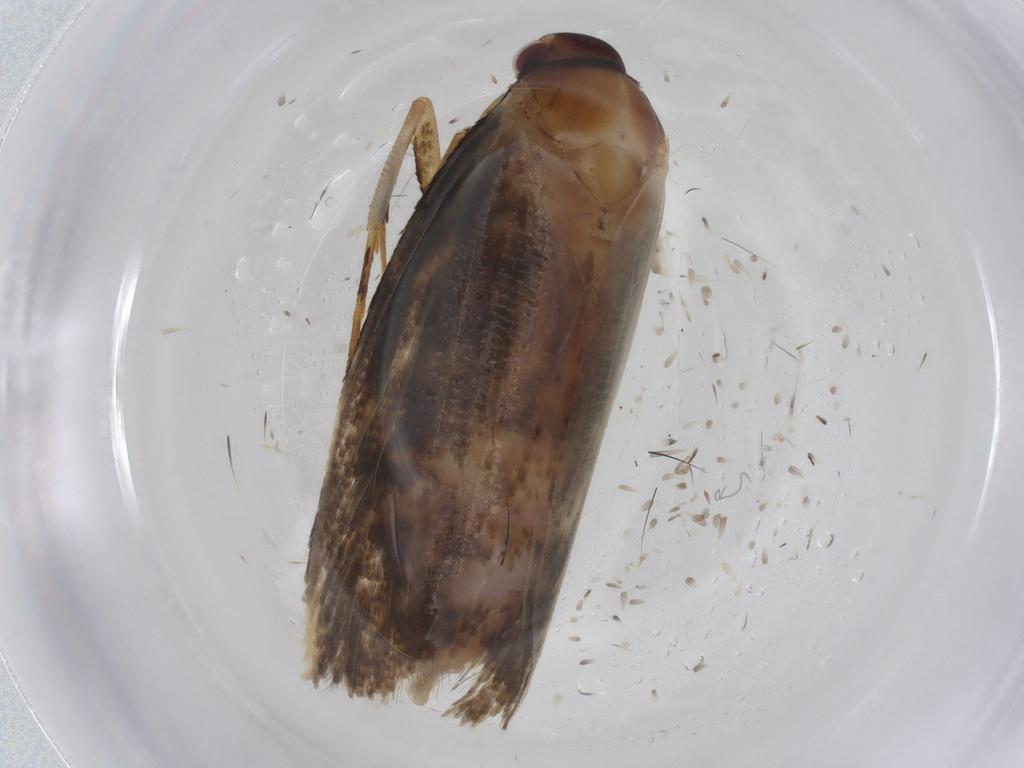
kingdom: Animalia
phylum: Arthropoda
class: Insecta
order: Lepidoptera
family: Cosmopterigidae
